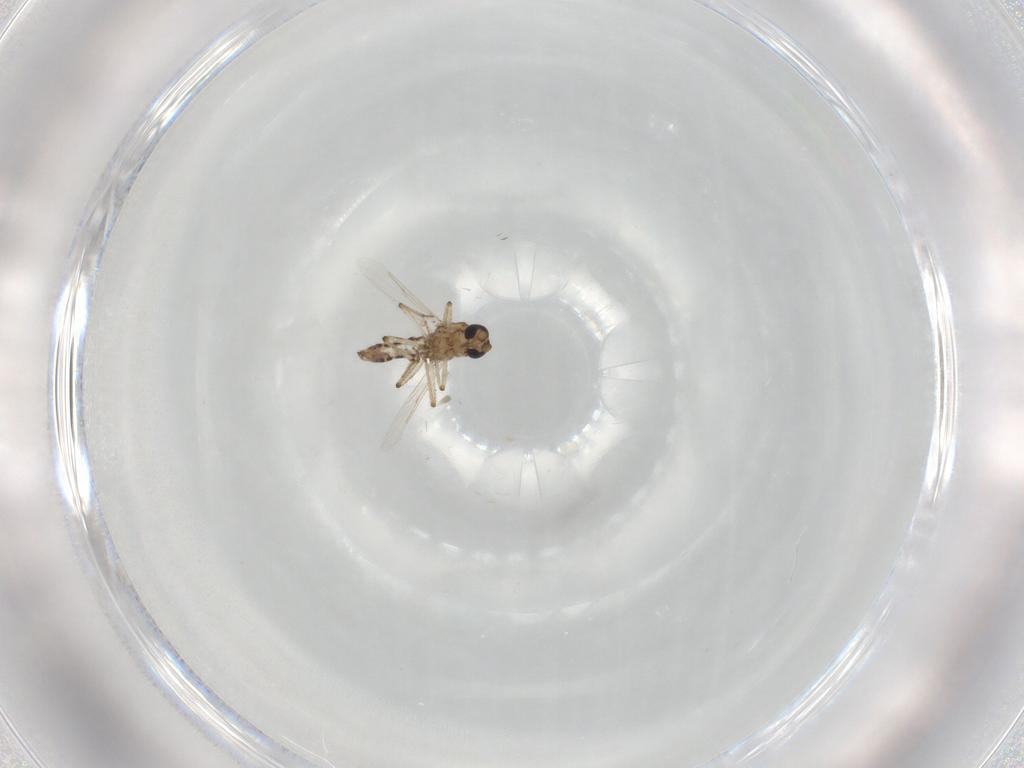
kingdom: Animalia
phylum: Arthropoda
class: Insecta
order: Diptera
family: Ceratopogonidae
